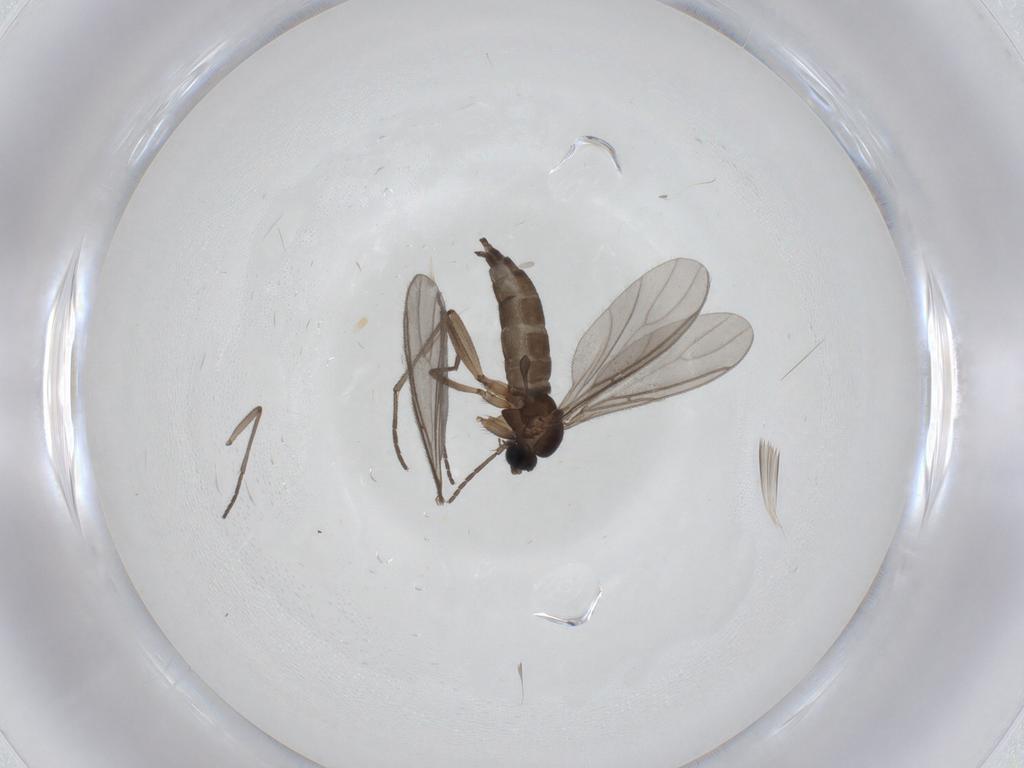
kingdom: Animalia
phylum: Arthropoda
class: Insecta
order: Diptera
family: Sciaridae
